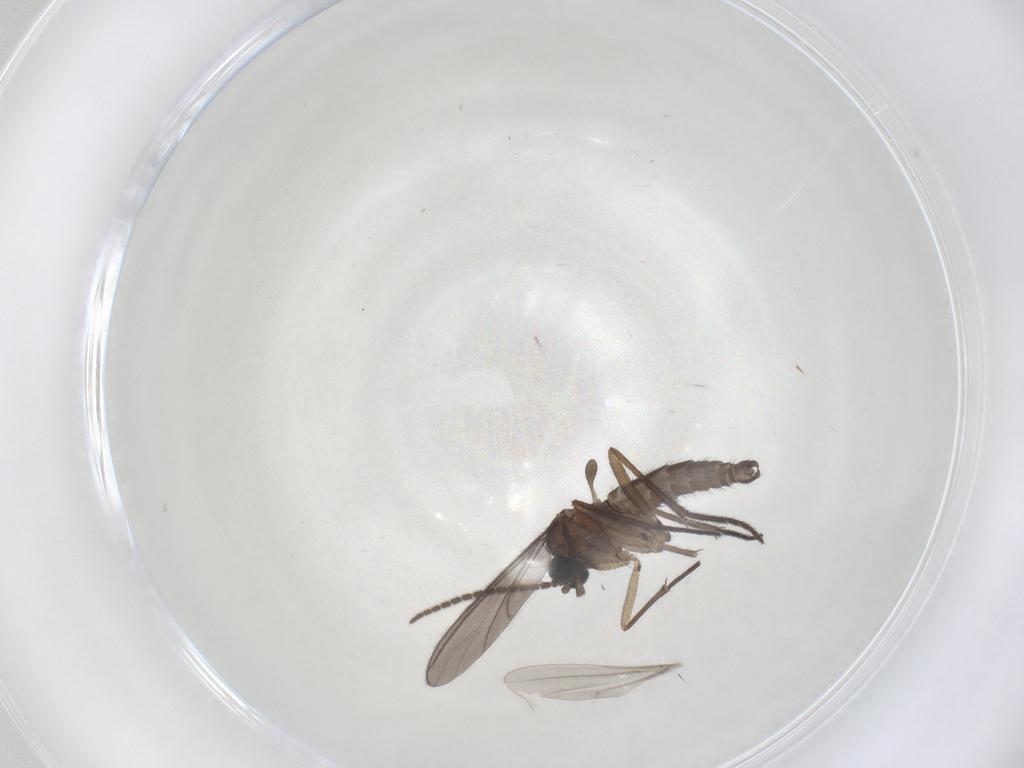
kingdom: Animalia
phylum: Arthropoda
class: Insecta
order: Diptera
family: Sciaridae
